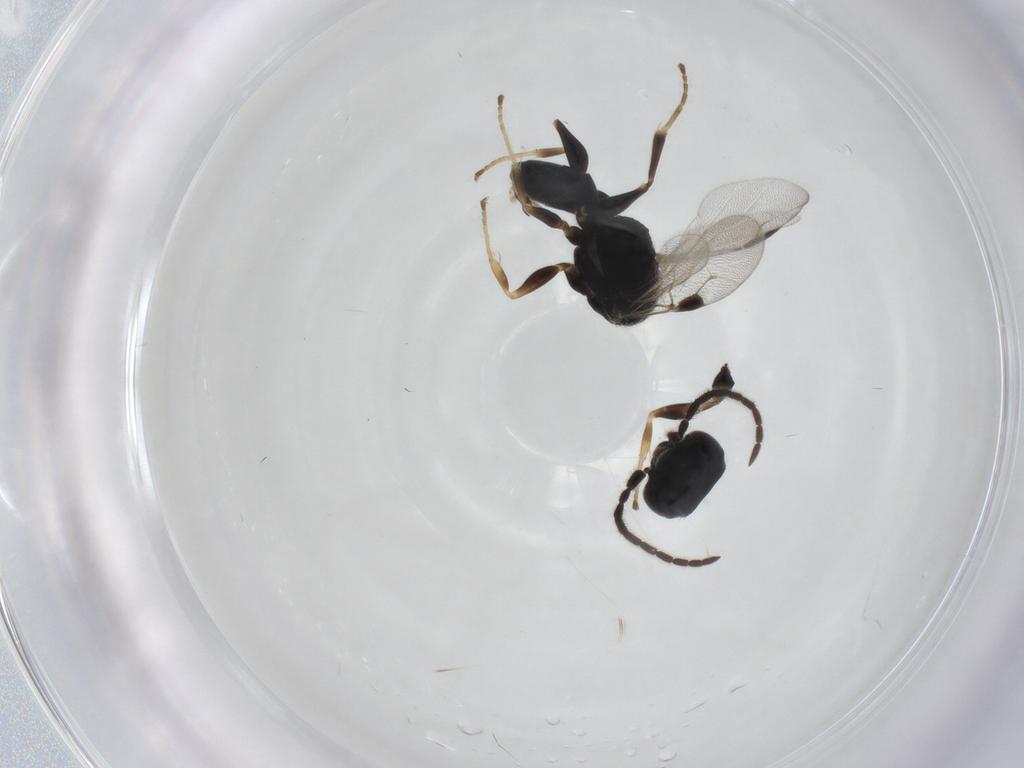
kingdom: Animalia
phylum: Arthropoda
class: Insecta
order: Hymenoptera
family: Dryinidae
